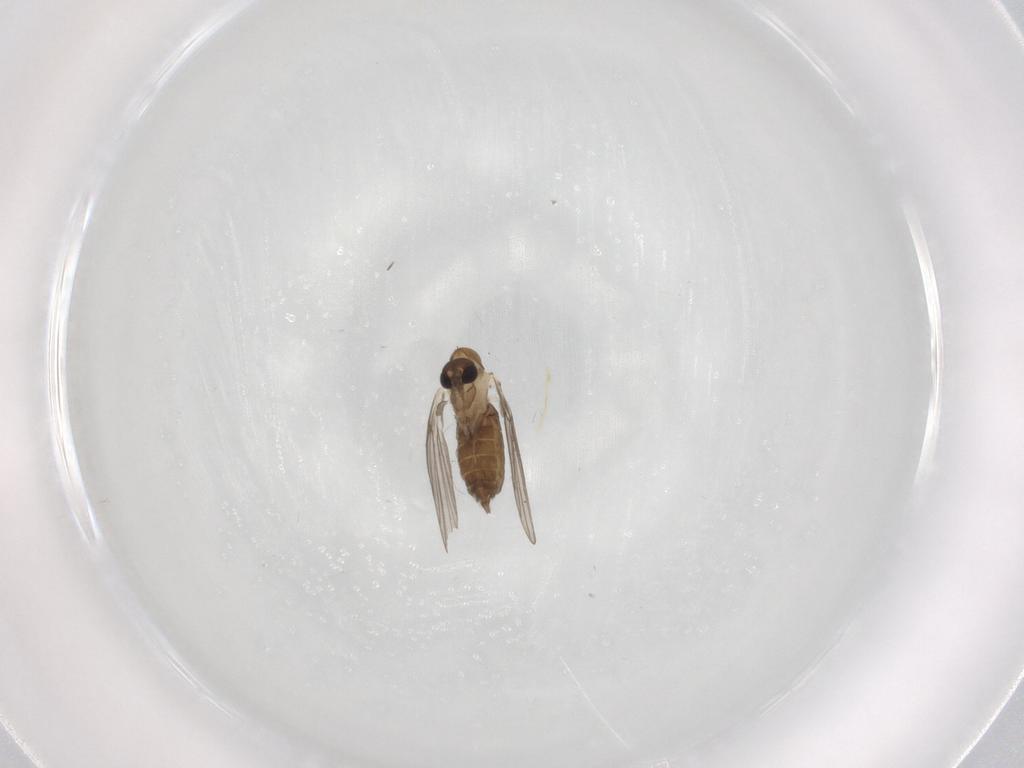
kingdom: Animalia
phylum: Arthropoda
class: Insecta
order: Diptera
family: Psychodidae
